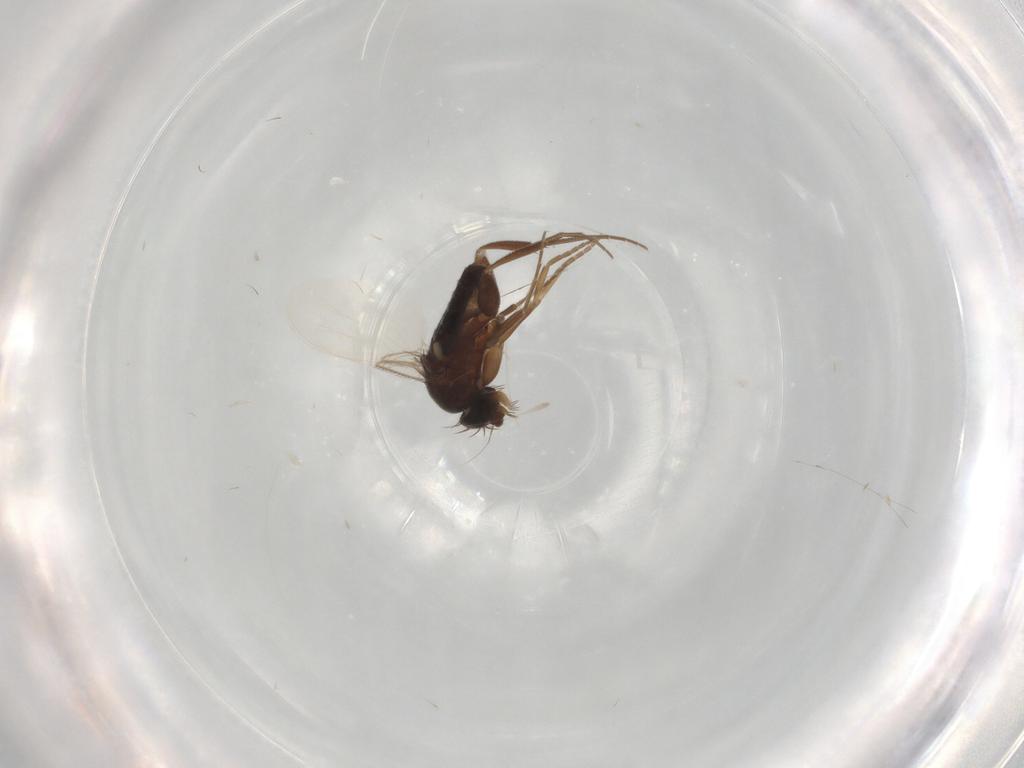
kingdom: Animalia
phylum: Arthropoda
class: Insecta
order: Diptera
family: Phoridae
